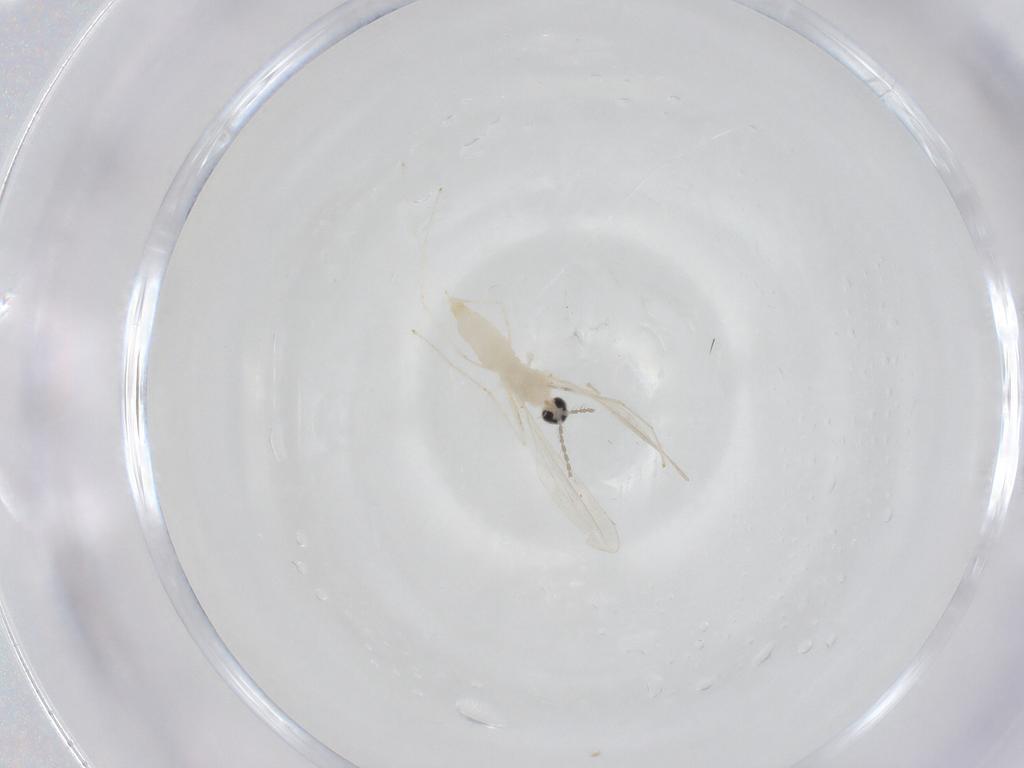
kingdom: Animalia
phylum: Arthropoda
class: Insecta
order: Diptera
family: Cecidomyiidae
